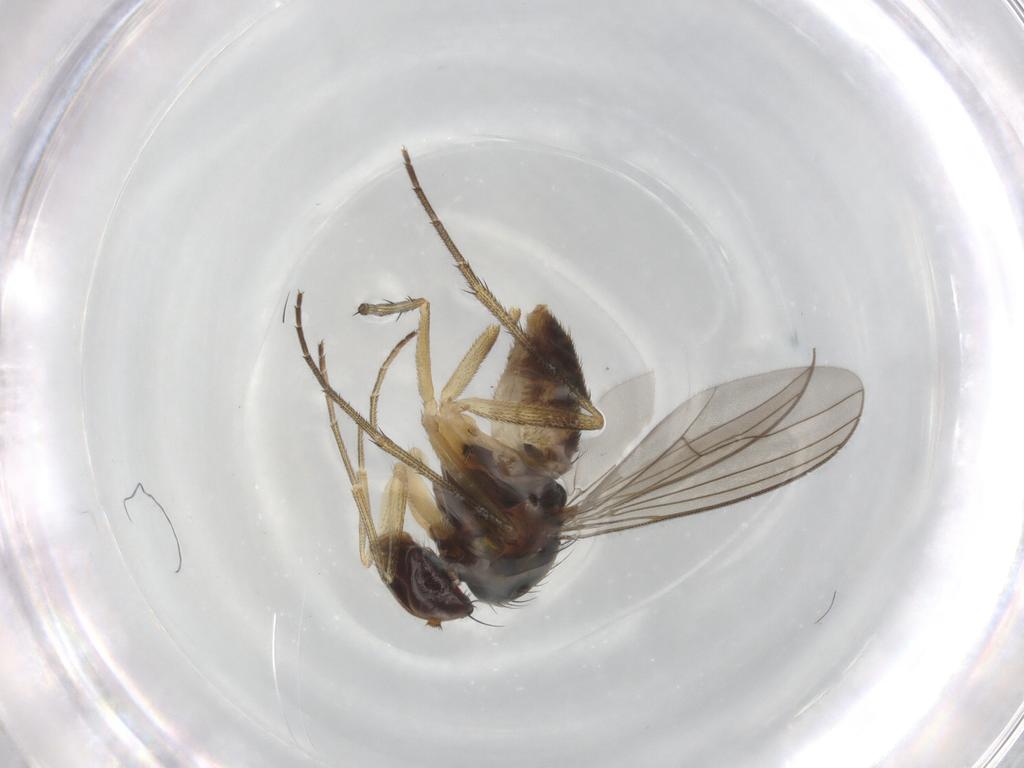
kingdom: Animalia
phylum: Arthropoda
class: Insecta
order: Diptera
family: Dolichopodidae
